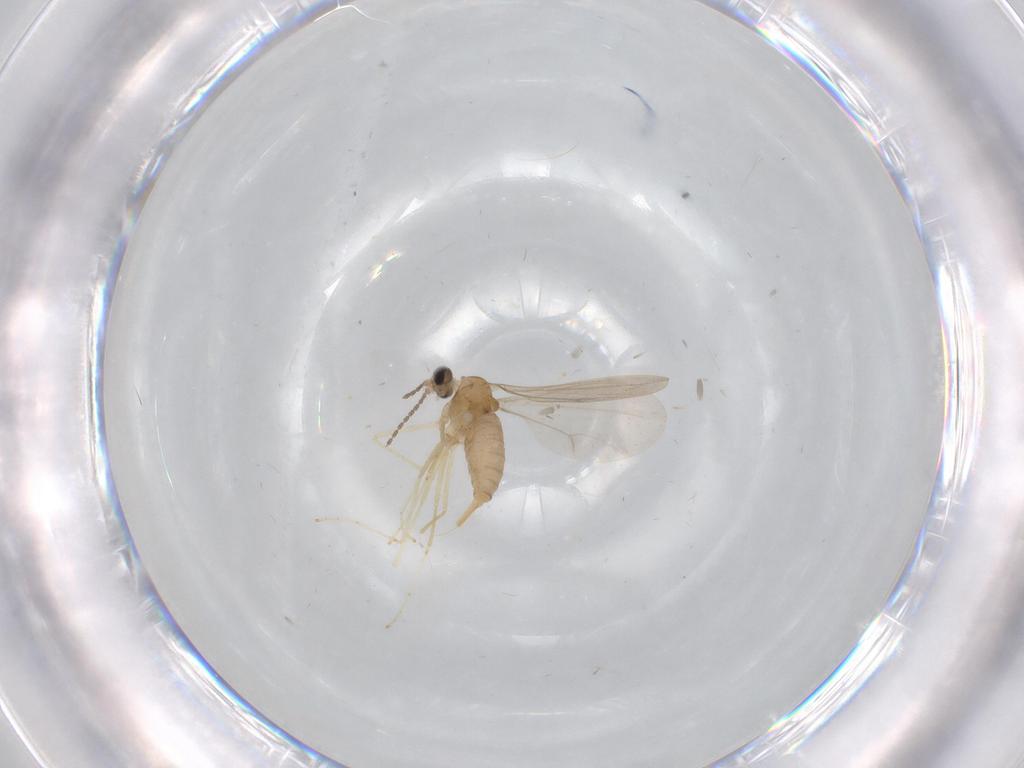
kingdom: Animalia
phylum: Arthropoda
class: Insecta
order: Diptera
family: Cecidomyiidae
